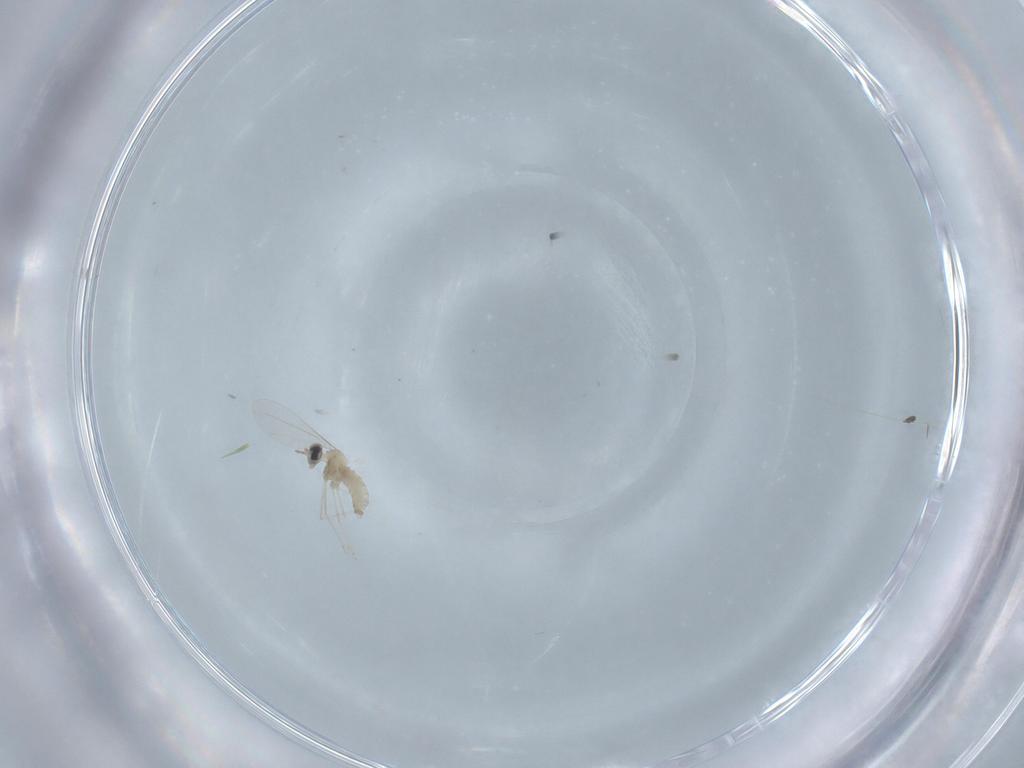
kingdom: Animalia
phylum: Arthropoda
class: Insecta
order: Diptera
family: Cecidomyiidae
